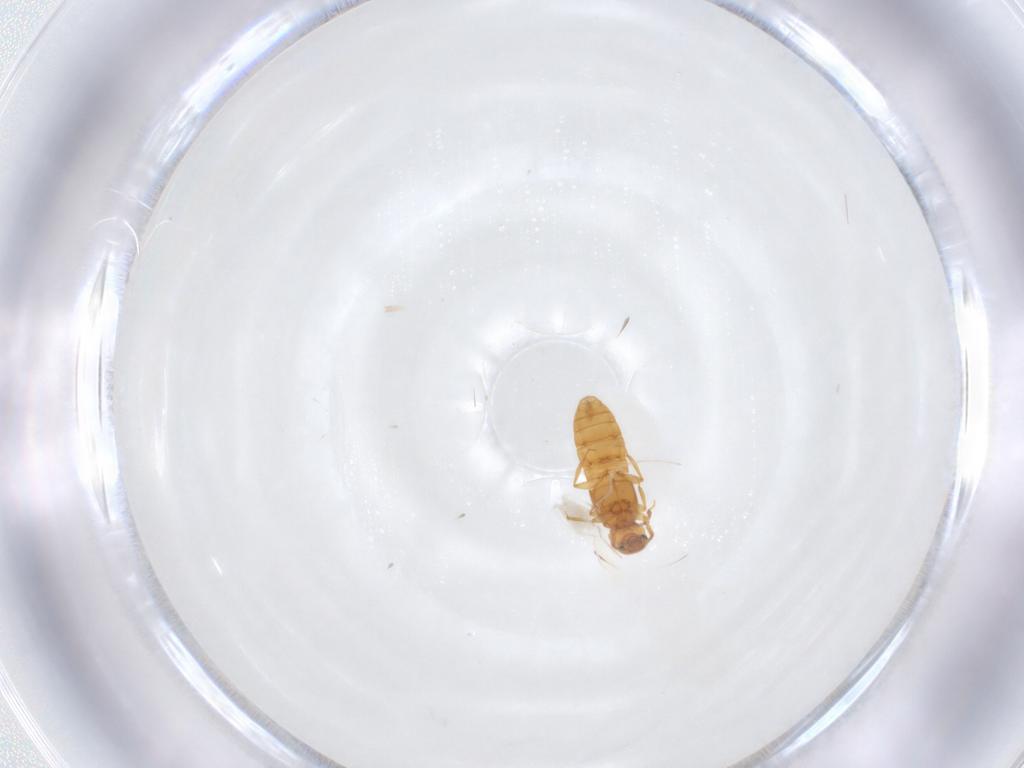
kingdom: Animalia
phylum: Arthropoda
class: Insecta
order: Coleoptera
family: Staphylinidae
